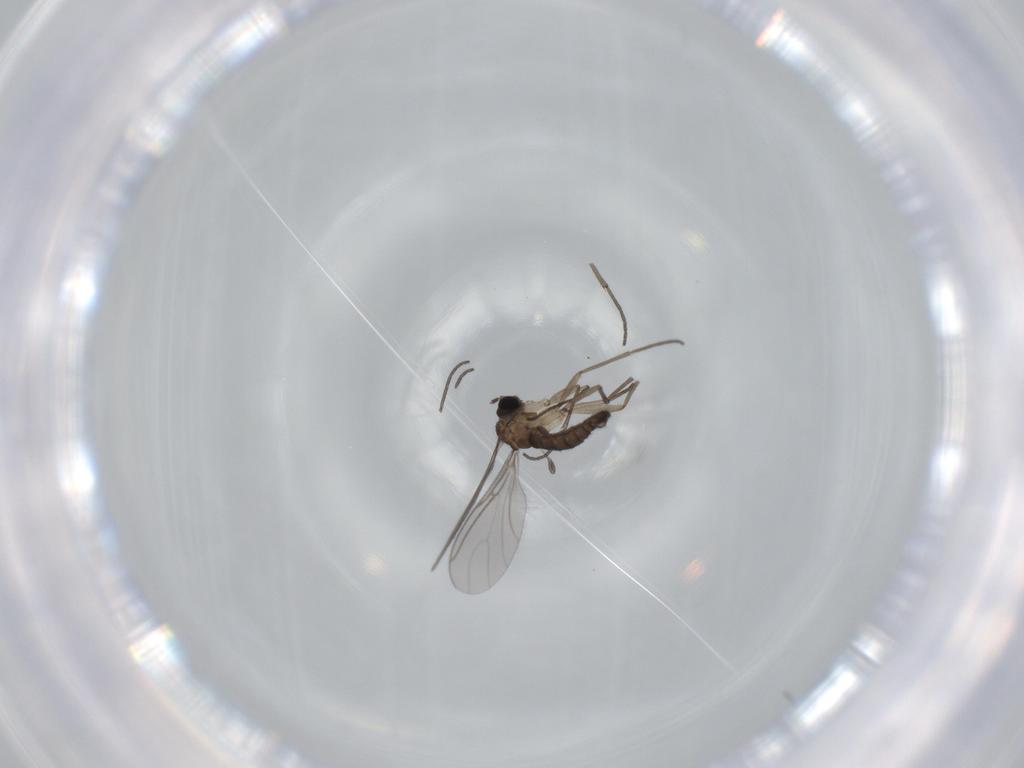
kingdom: Animalia
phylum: Arthropoda
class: Insecta
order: Diptera
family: Sciaridae
